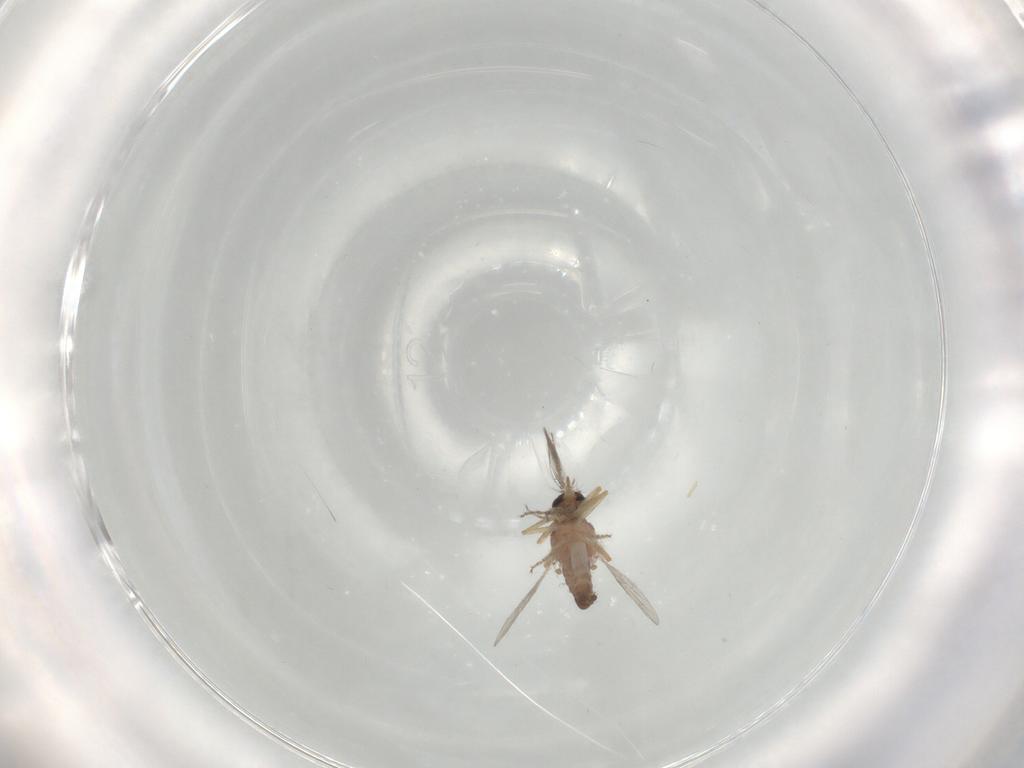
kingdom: Animalia
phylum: Arthropoda
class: Insecta
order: Diptera
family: Ceratopogonidae
